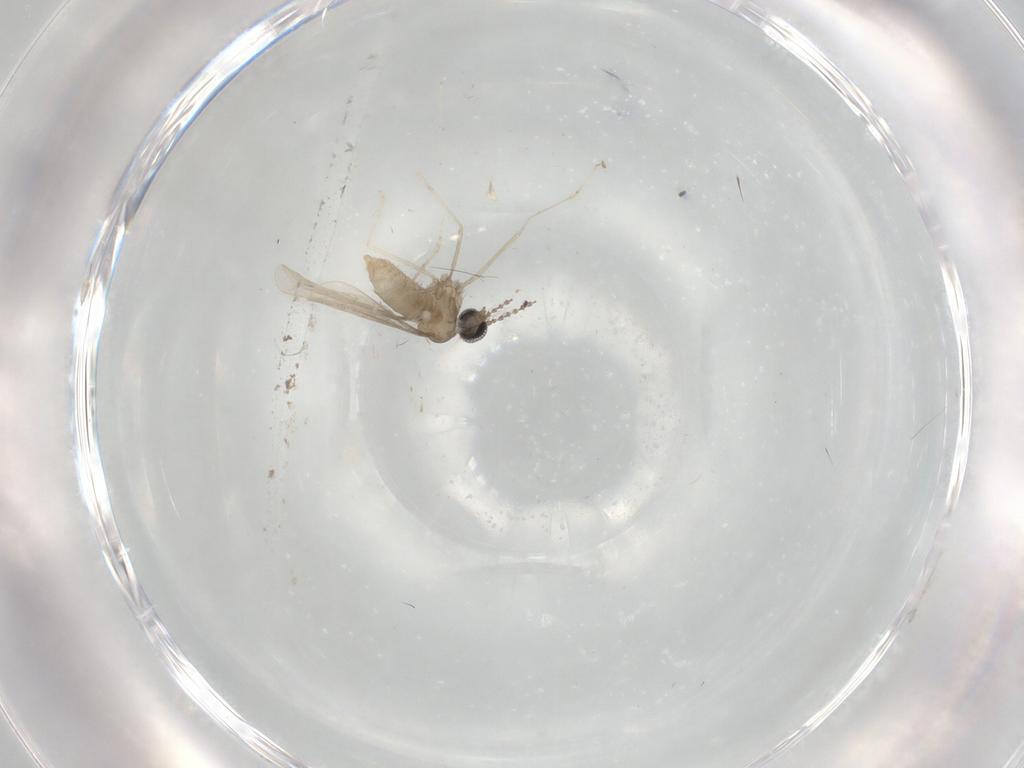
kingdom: Animalia
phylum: Arthropoda
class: Insecta
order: Diptera
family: Cecidomyiidae
